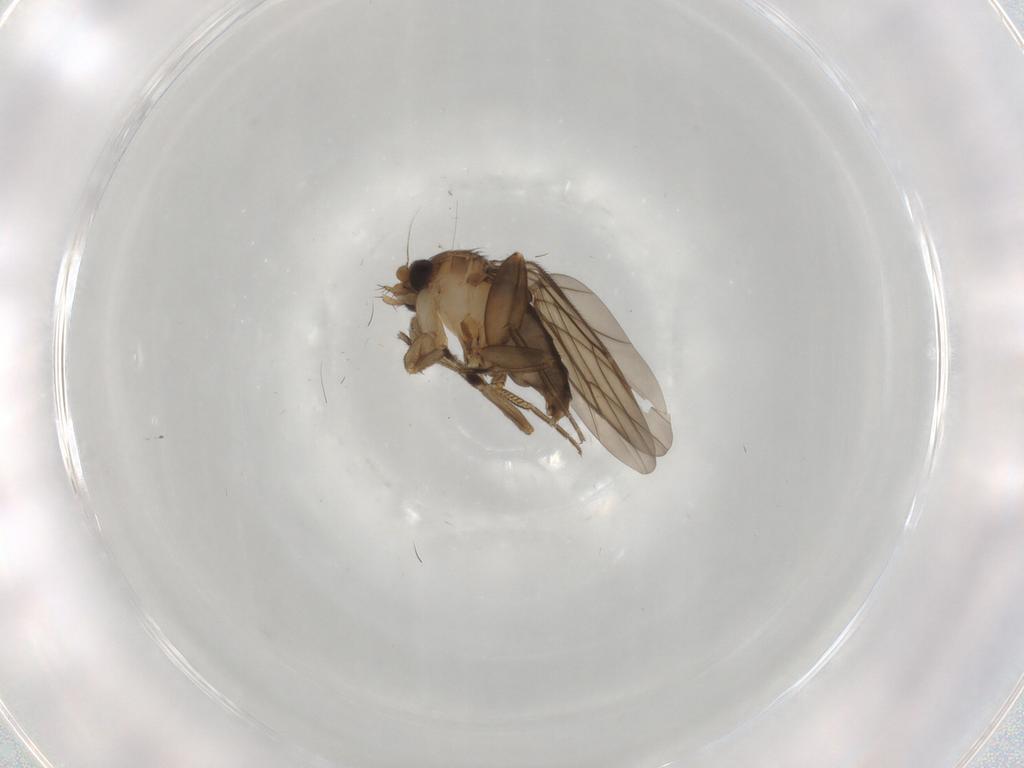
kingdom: Animalia
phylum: Arthropoda
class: Insecta
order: Diptera
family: Phoridae
